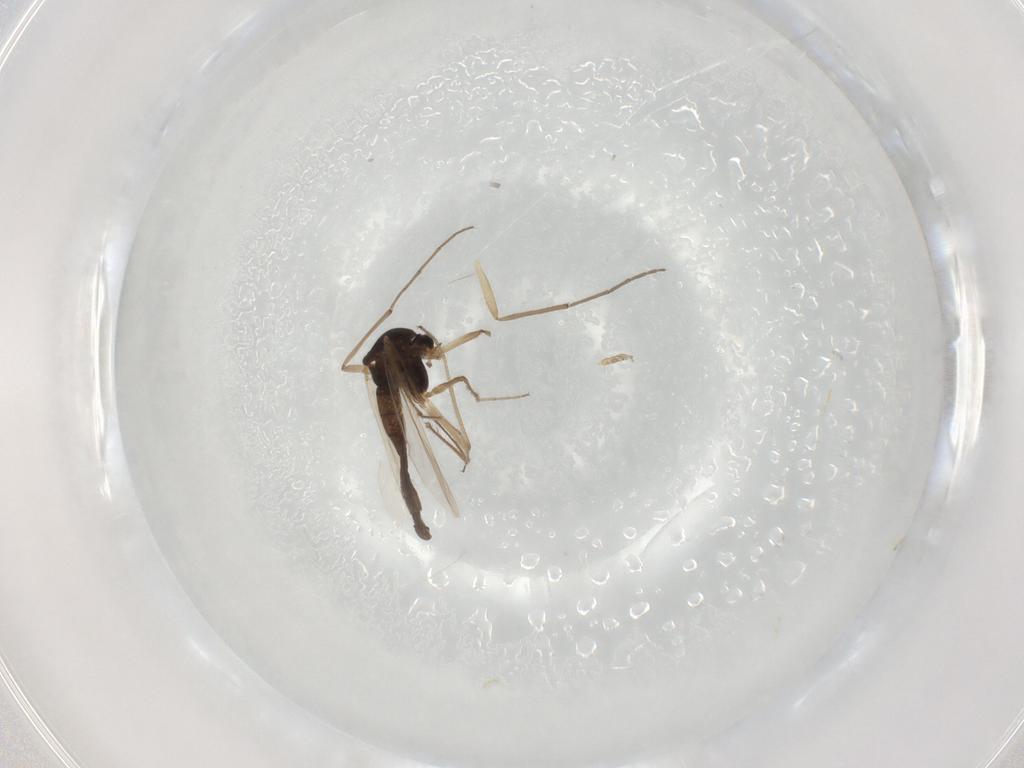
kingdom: Animalia
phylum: Arthropoda
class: Insecta
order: Diptera
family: Chironomidae
